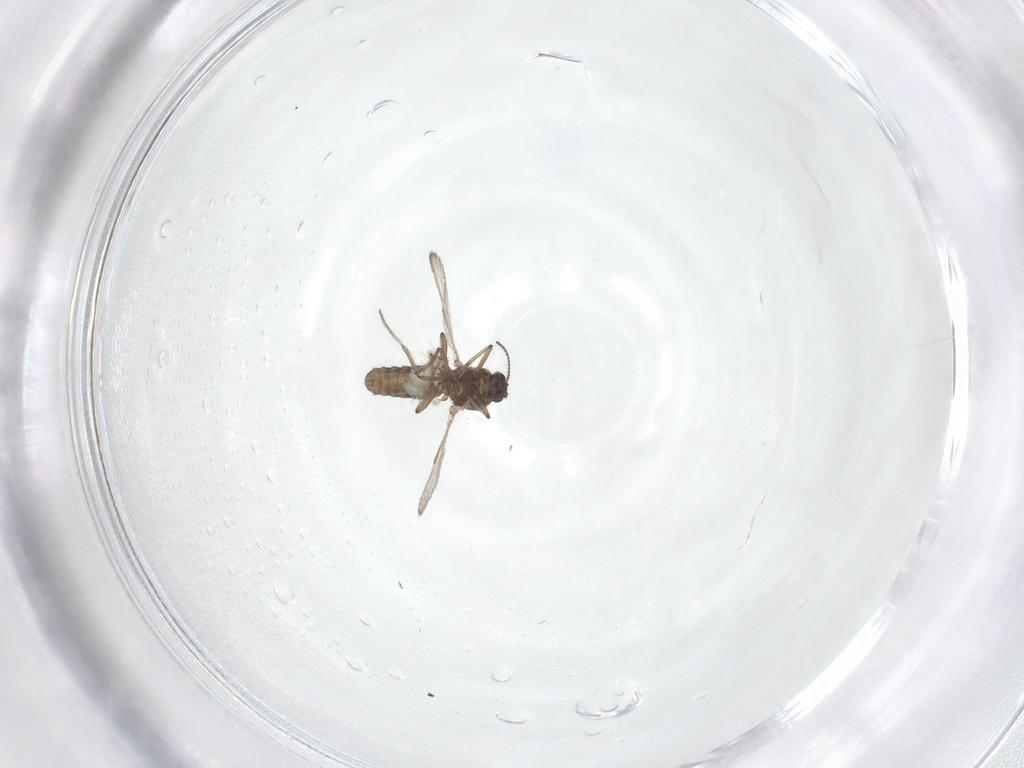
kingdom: Animalia
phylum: Arthropoda
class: Insecta
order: Diptera
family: Ceratopogonidae
